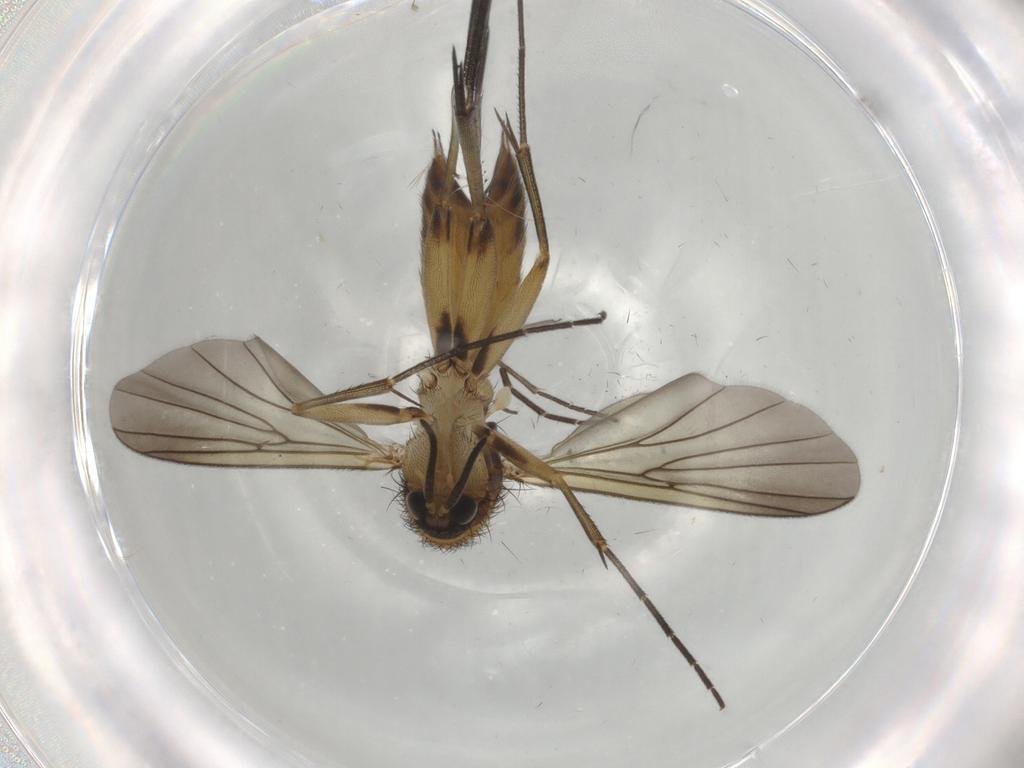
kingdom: Animalia
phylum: Arthropoda
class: Insecta
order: Diptera
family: Mycetophilidae
